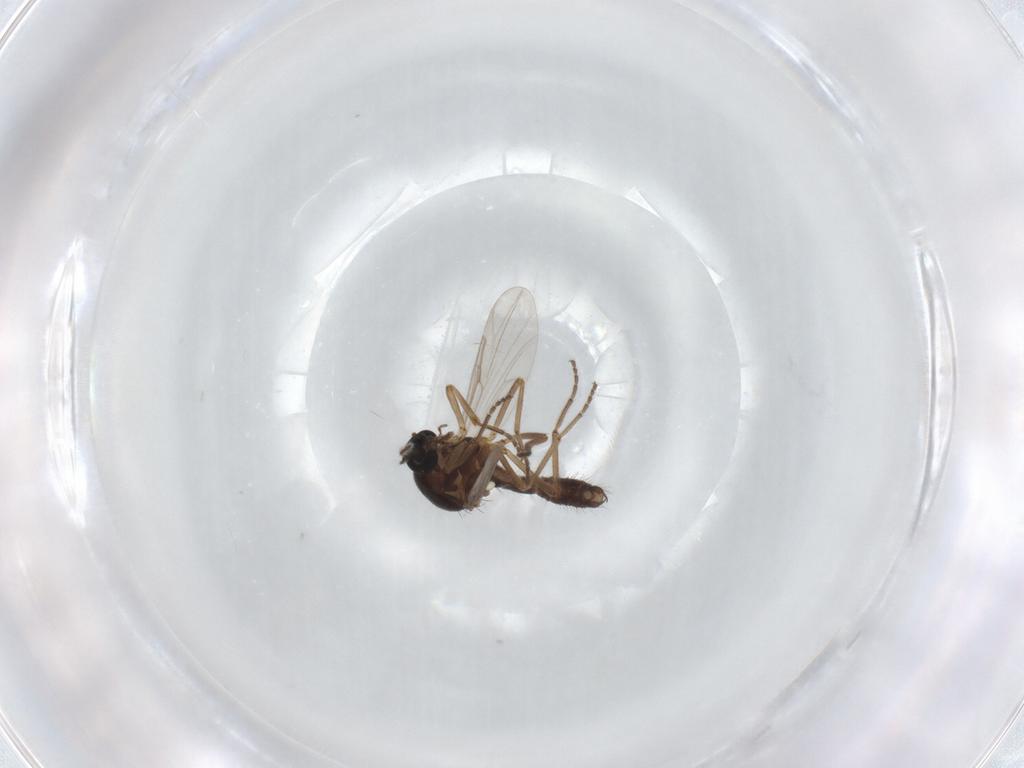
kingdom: Animalia
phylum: Arthropoda
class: Insecta
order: Diptera
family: Ceratopogonidae
